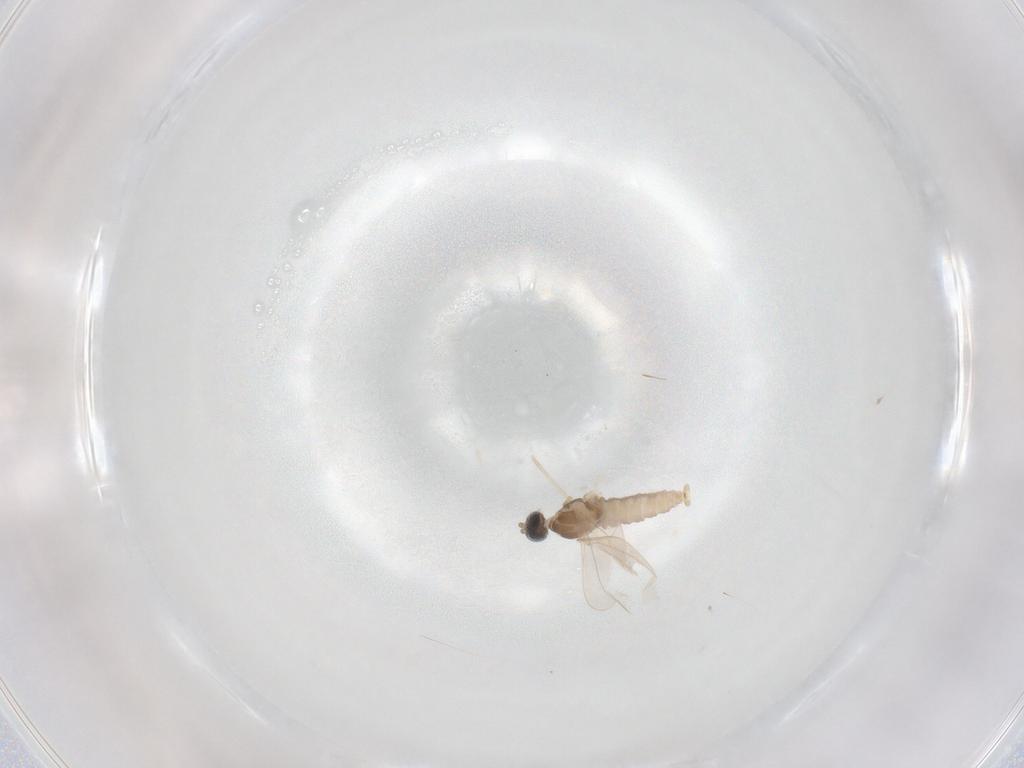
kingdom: Animalia
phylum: Arthropoda
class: Insecta
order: Diptera
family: Cecidomyiidae
